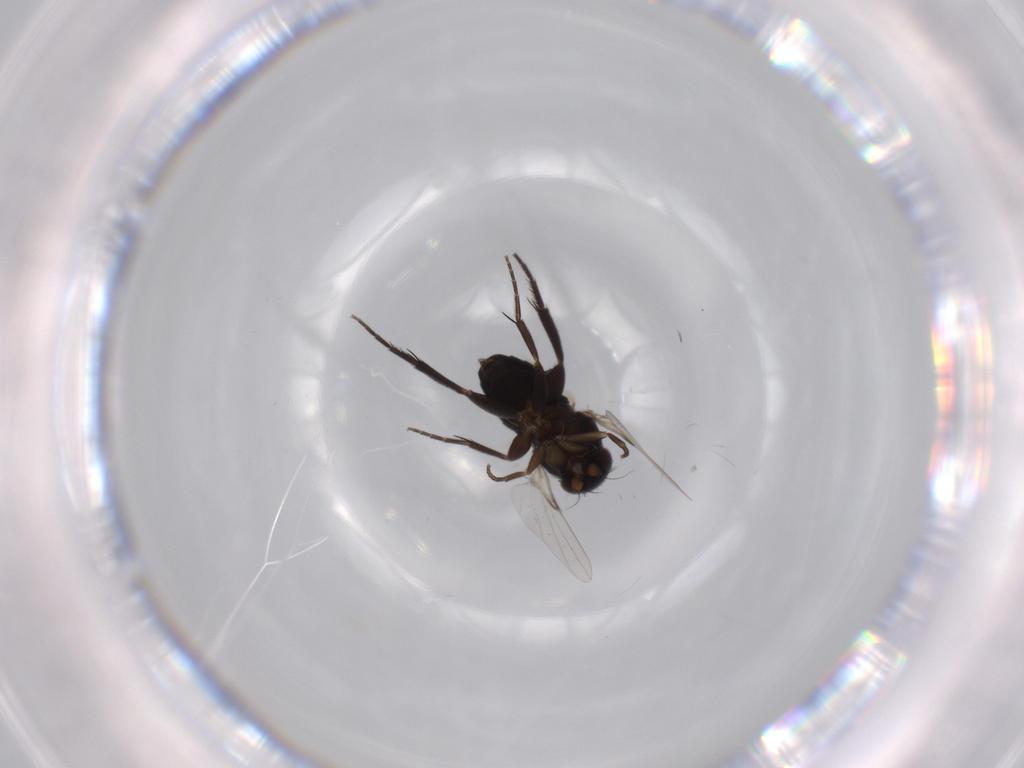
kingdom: Animalia
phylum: Arthropoda
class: Insecta
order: Diptera
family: Phoridae
